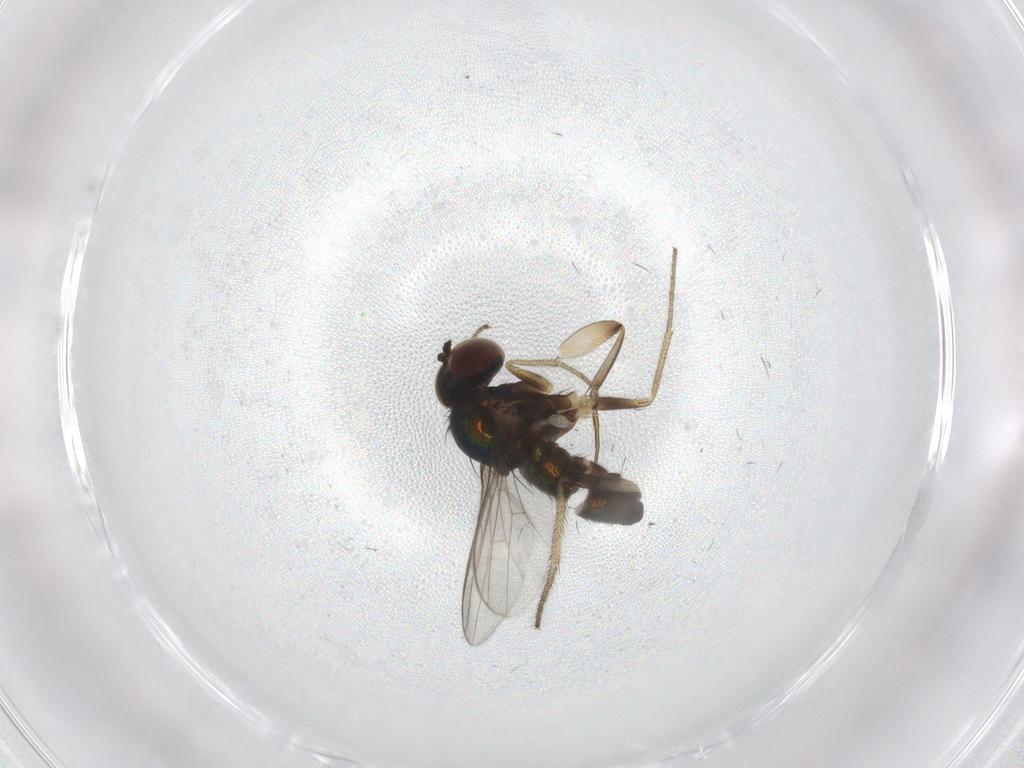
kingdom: Animalia
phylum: Arthropoda
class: Insecta
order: Diptera
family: Phoridae
